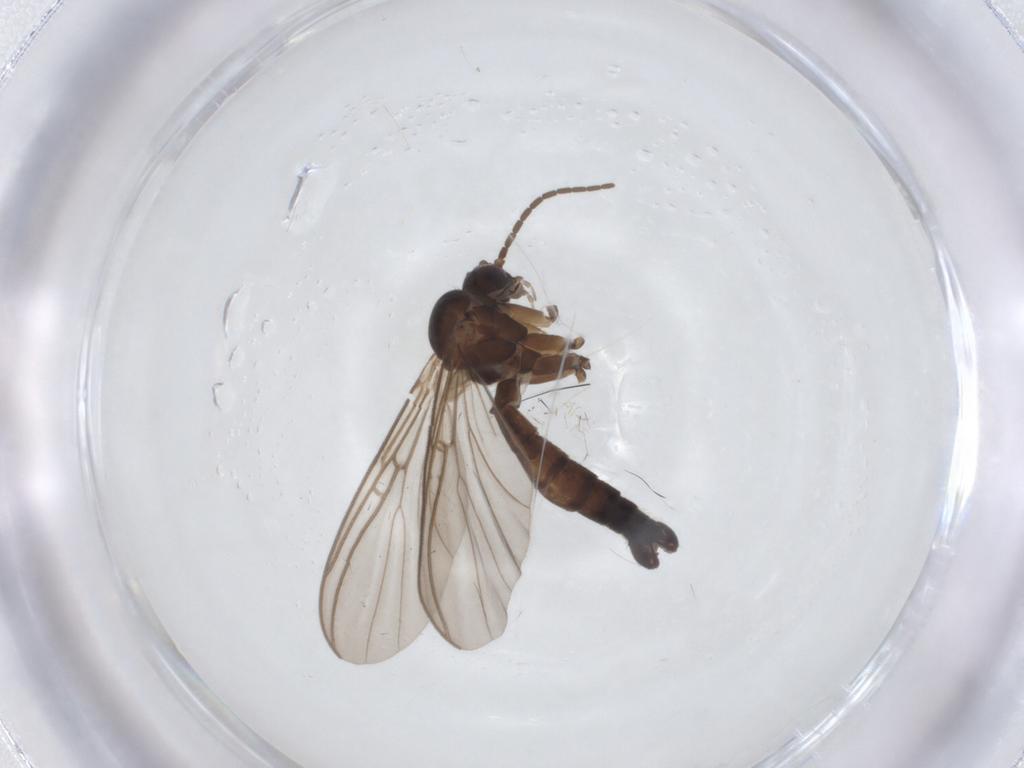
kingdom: Animalia
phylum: Arthropoda
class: Insecta
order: Diptera
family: Mycetophilidae
